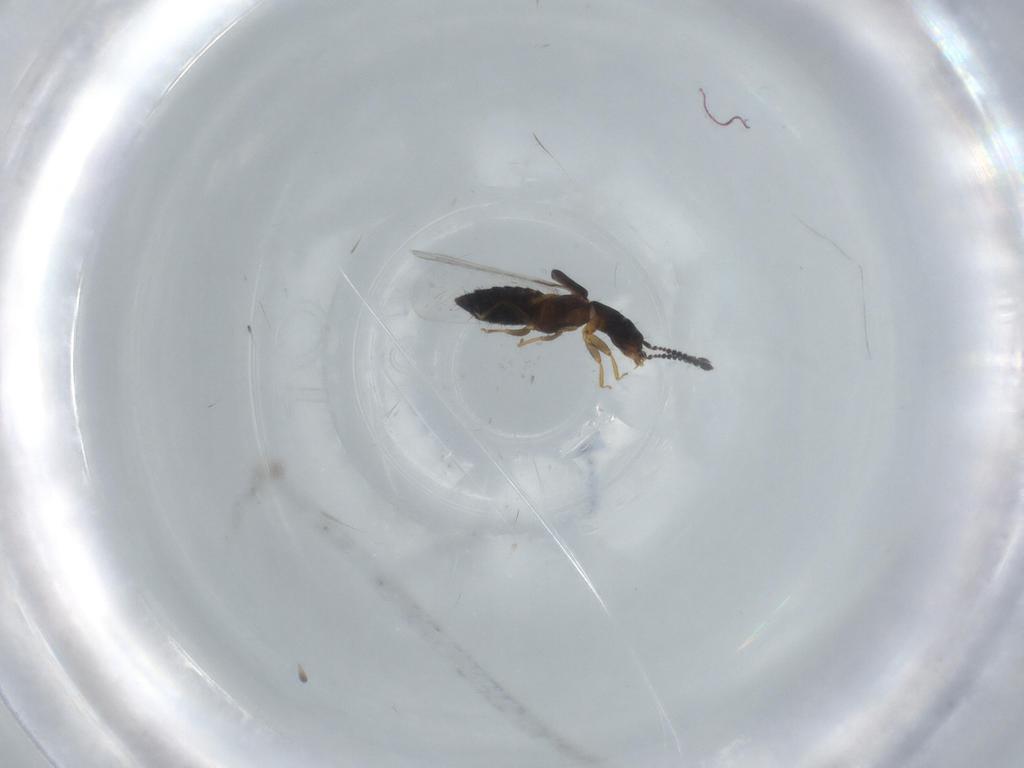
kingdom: Animalia
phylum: Arthropoda
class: Insecta
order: Coleoptera
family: Staphylinidae
